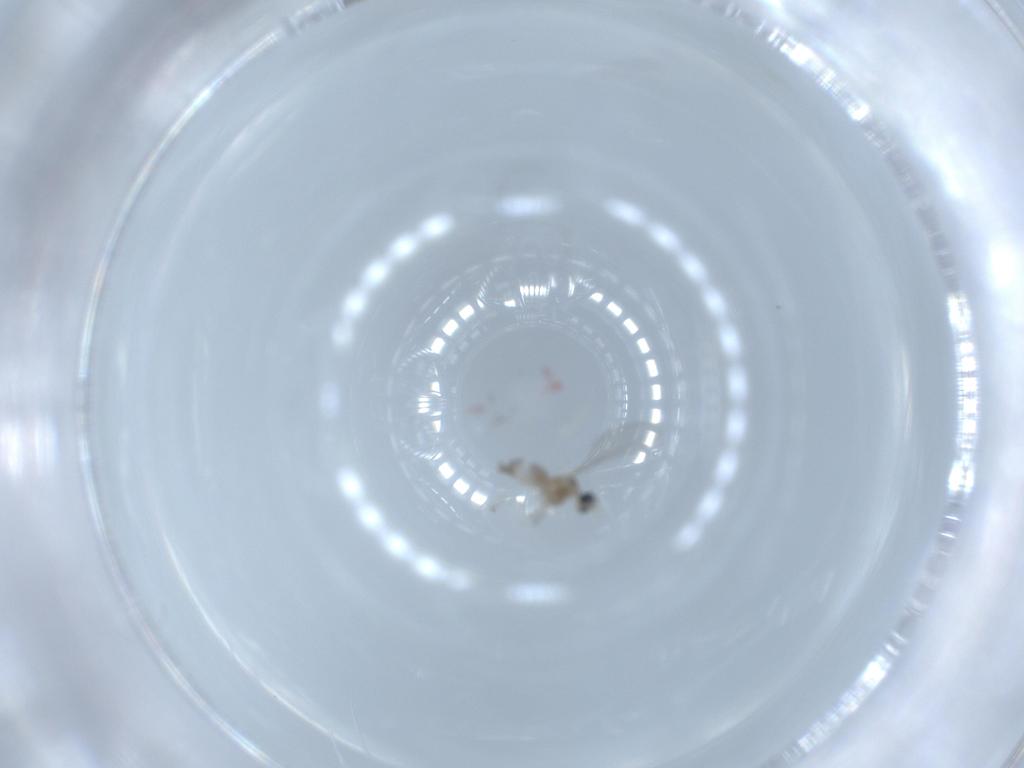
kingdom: Animalia
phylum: Arthropoda
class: Insecta
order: Diptera
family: Cecidomyiidae
